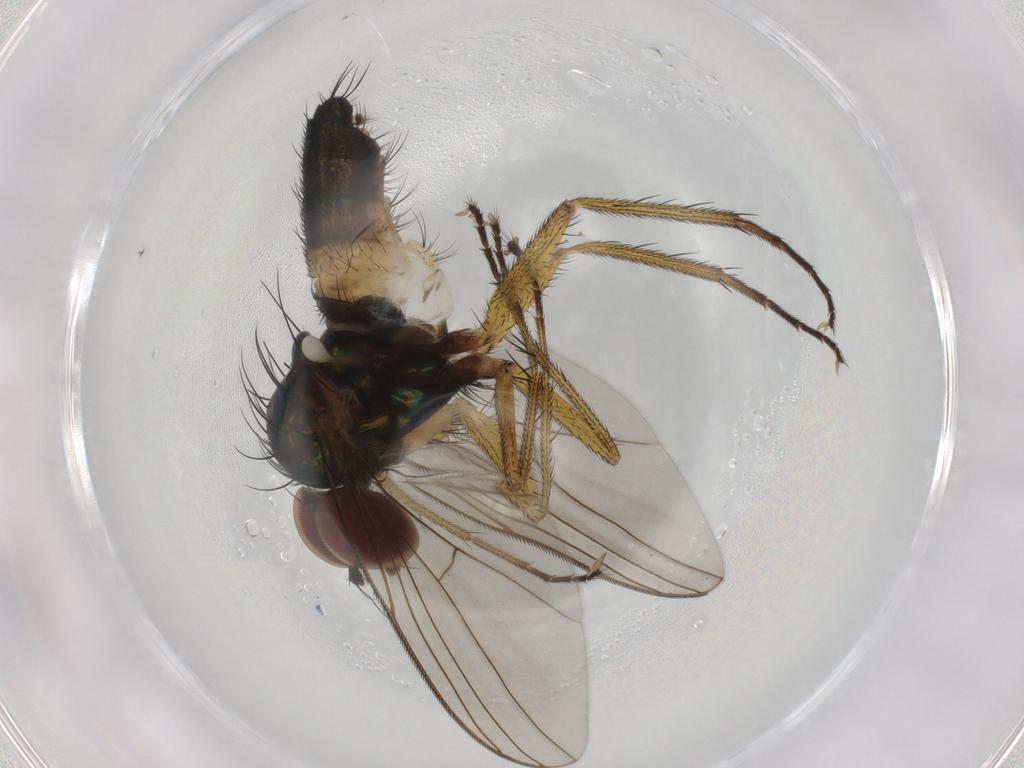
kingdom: Animalia
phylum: Arthropoda
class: Insecta
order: Diptera
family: Dolichopodidae
